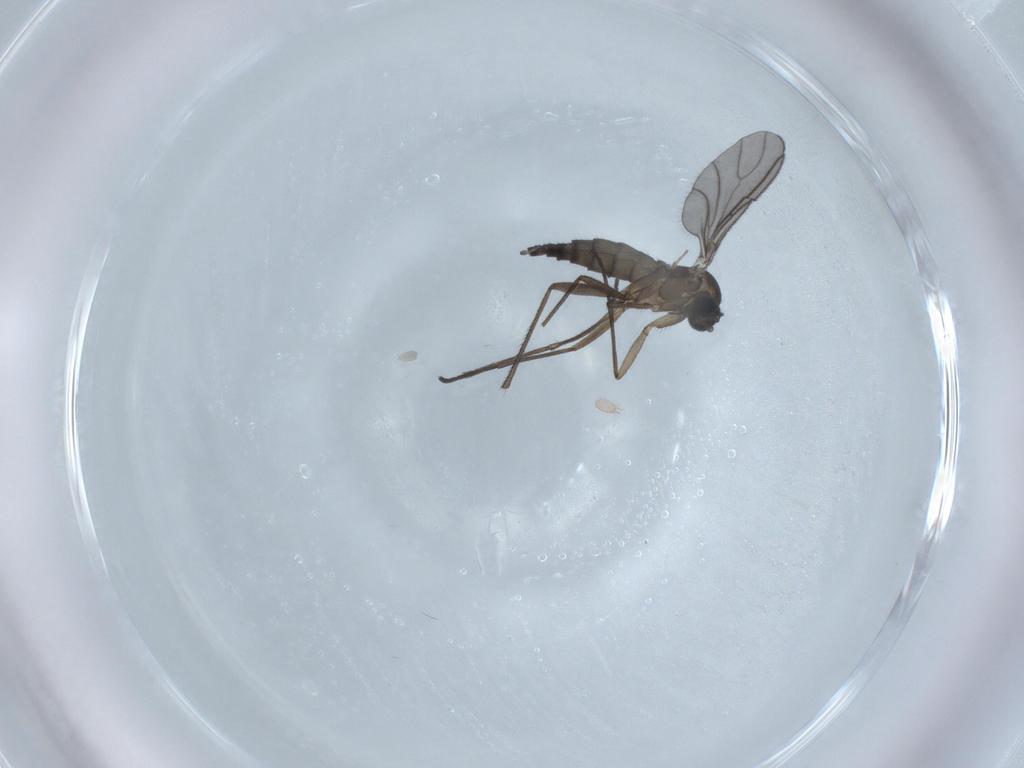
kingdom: Animalia
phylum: Arthropoda
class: Insecta
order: Diptera
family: Sciaridae
